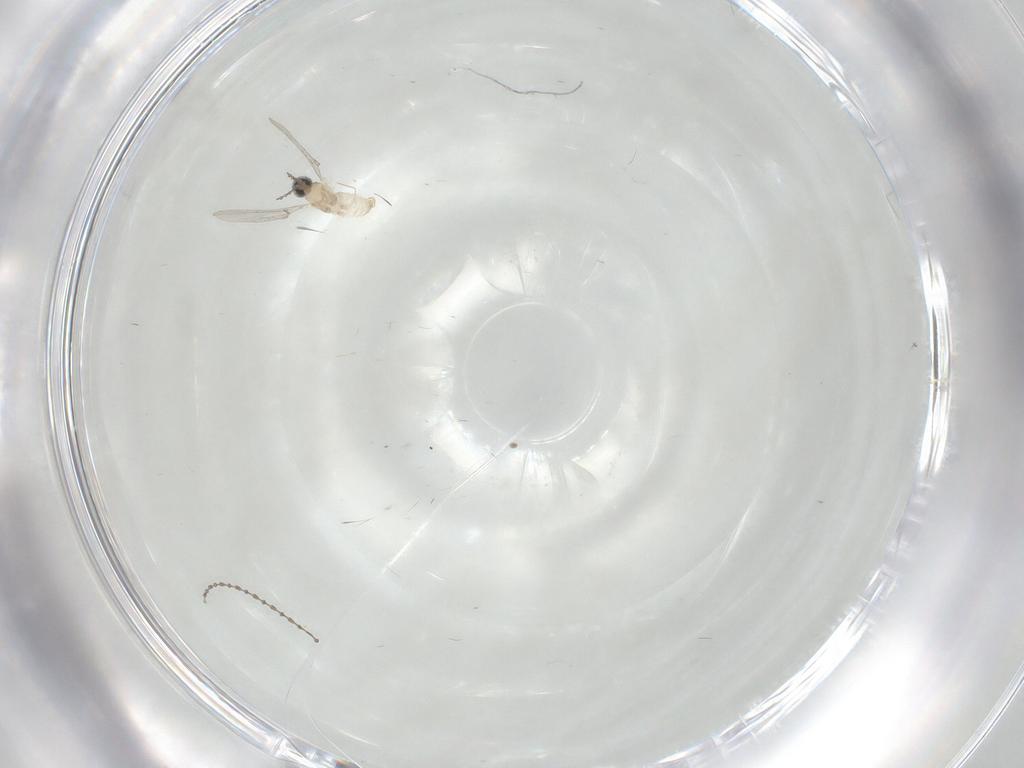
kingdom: Animalia
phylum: Arthropoda
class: Insecta
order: Diptera
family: Cecidomyiidae
